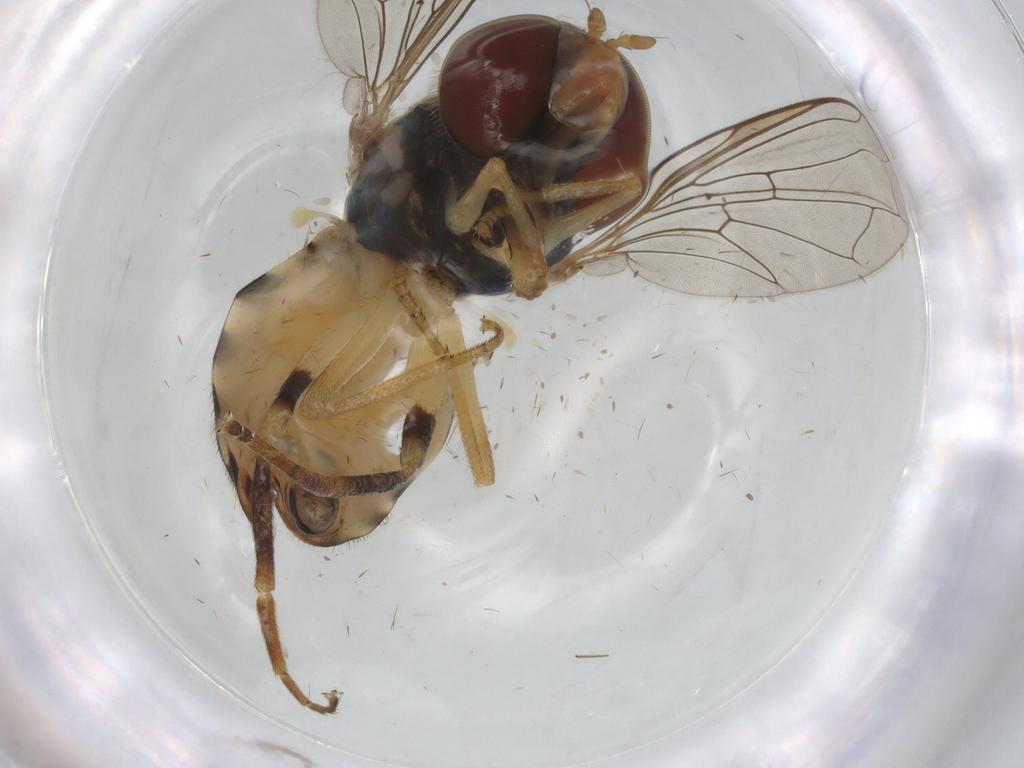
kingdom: Animalia
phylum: Arthropoda
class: Insecta
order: Diptera
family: Syrphidae
